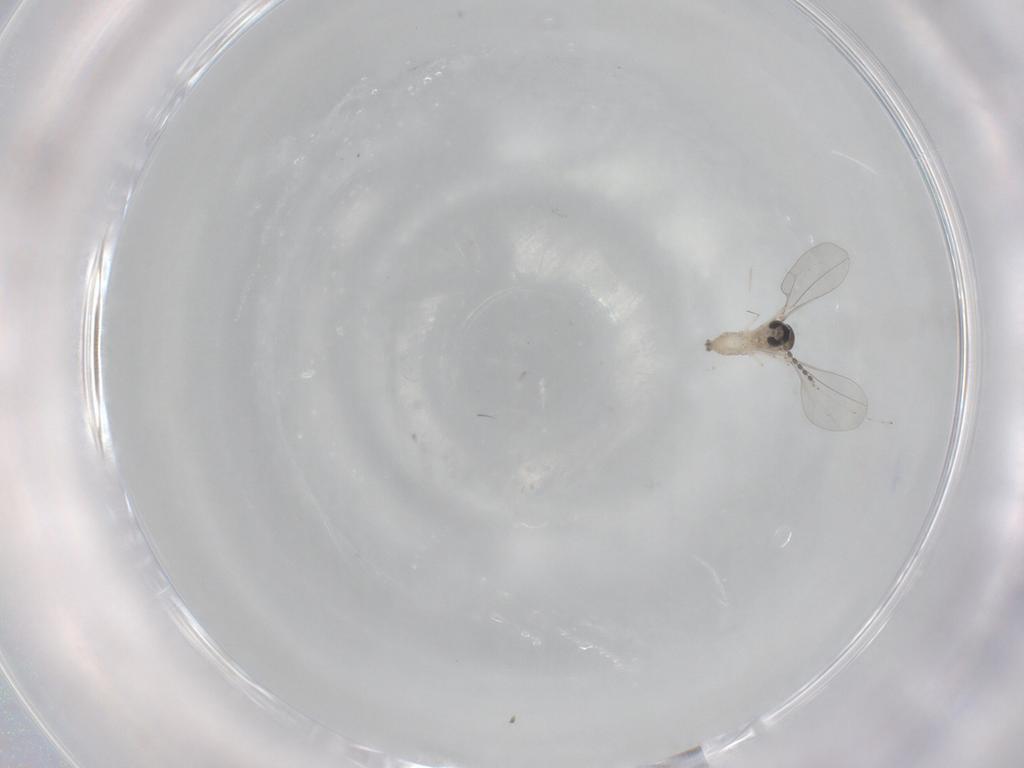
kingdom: Animalia
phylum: Arthropoda
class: Insecta
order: Diptera
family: Cecidomyiidae
